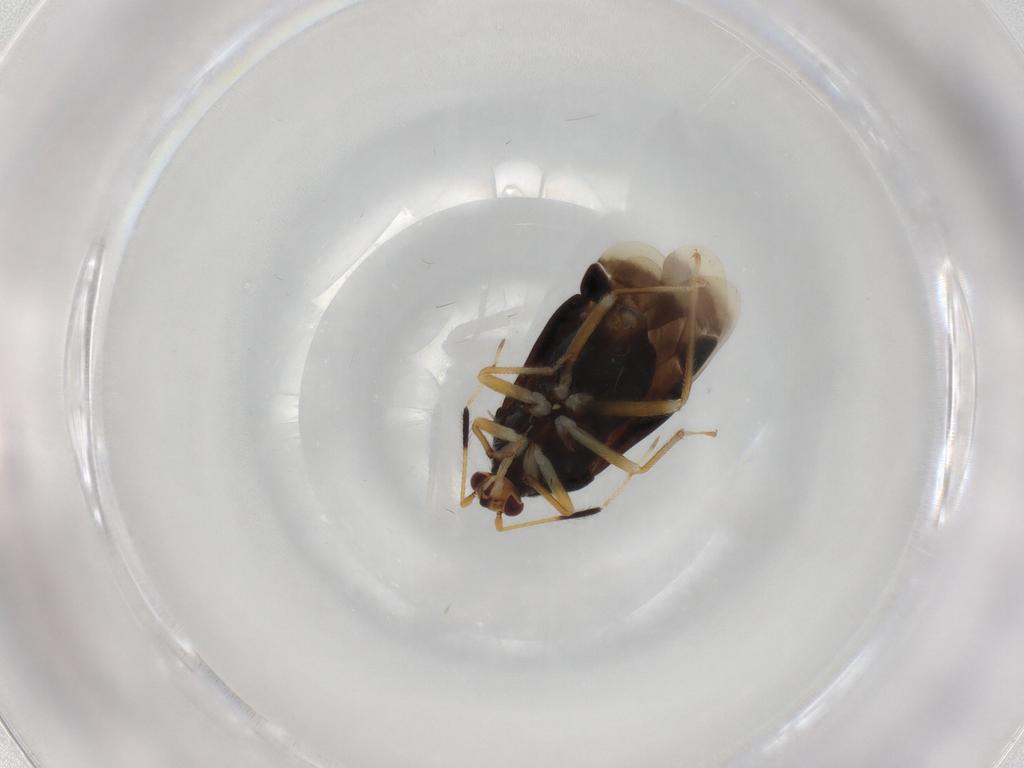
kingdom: Animalia
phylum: Arthropoda
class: Insecta
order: Hemiptera
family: Miridae
